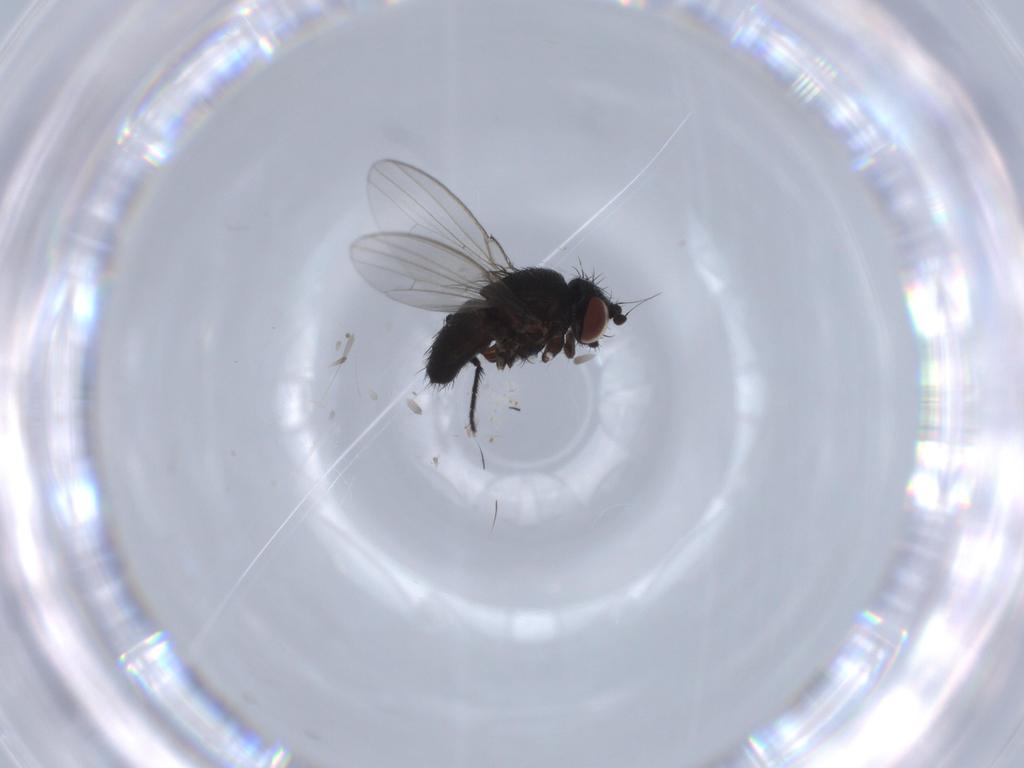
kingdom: Animalia
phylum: Arthropoda
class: Insecta
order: Diptera
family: Milichiidae
